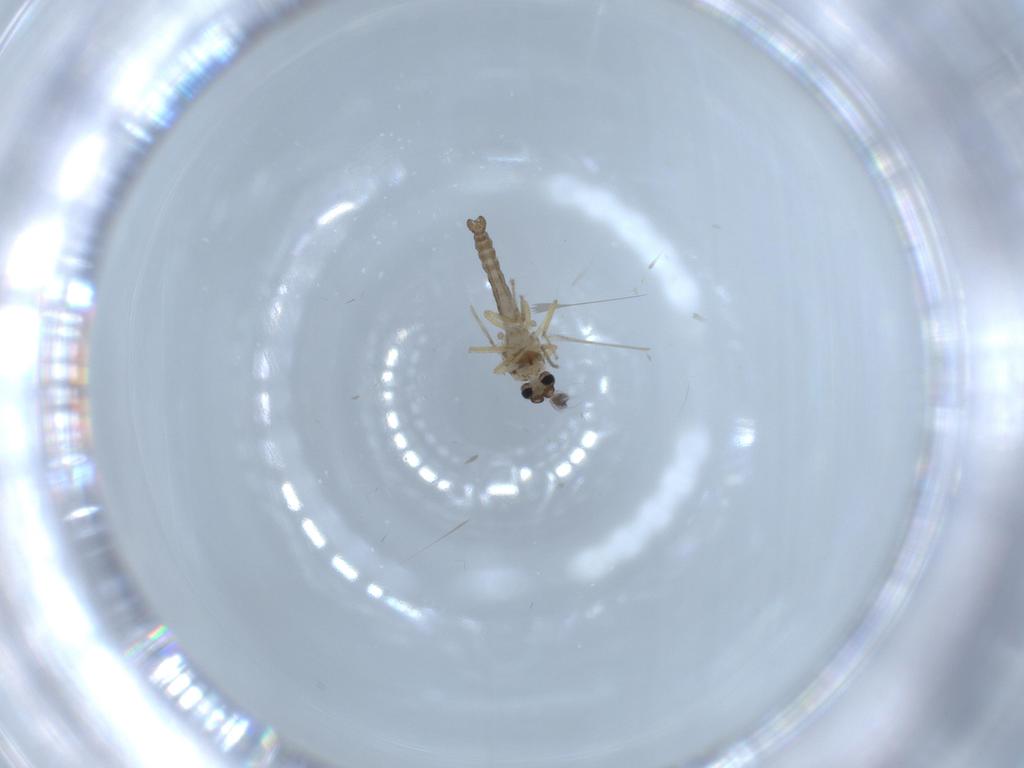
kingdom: Animalia
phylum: Arthropoda
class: Insecta
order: Diptera
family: Ceratopogonidae
